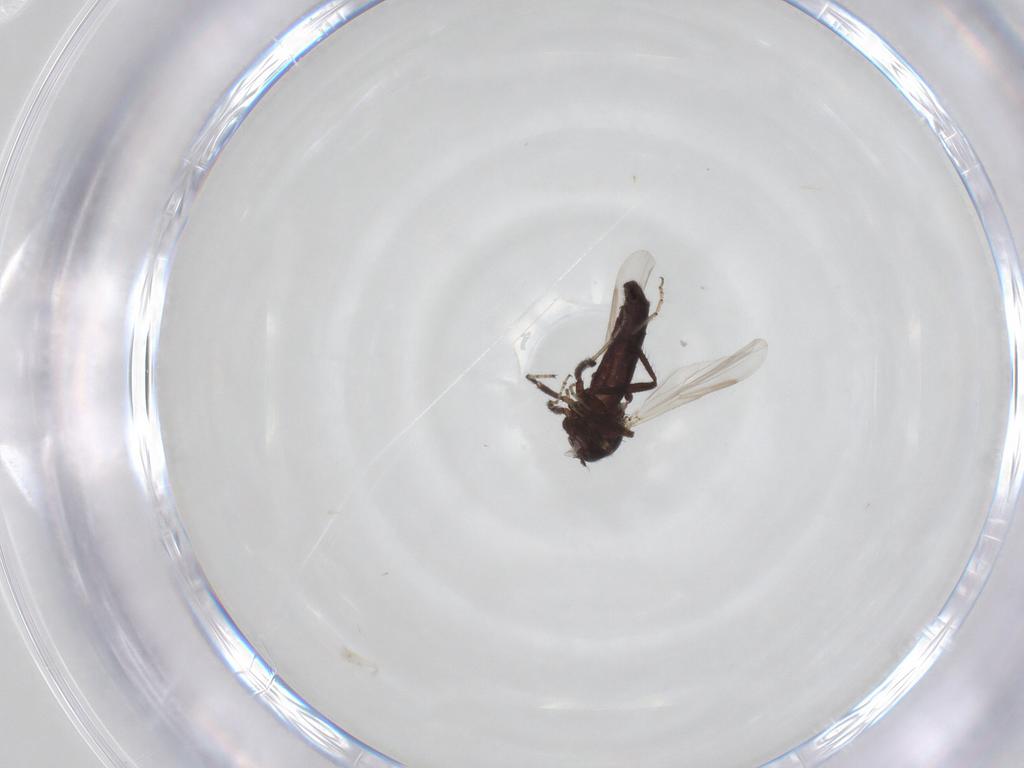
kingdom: Animalia
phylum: Arthropoda
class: Insecta
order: Diptera
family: Ceratopogonidae
